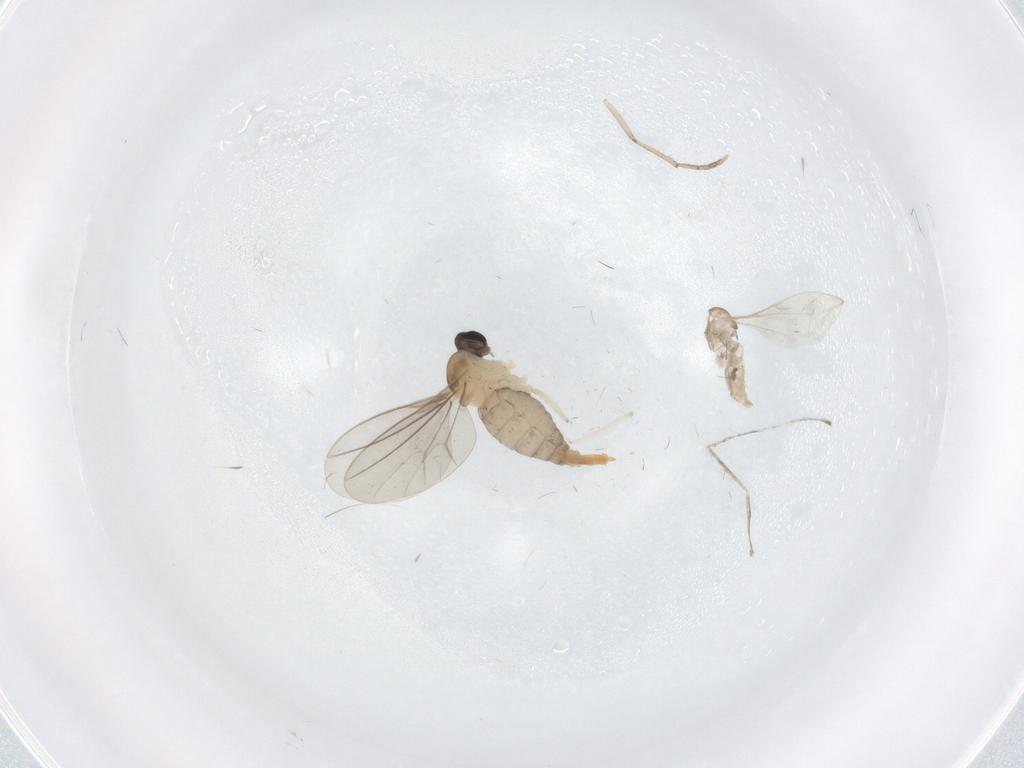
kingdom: Animalia
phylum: Arthropoda
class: Insecta
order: Diptera
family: Cecidomyiidae
